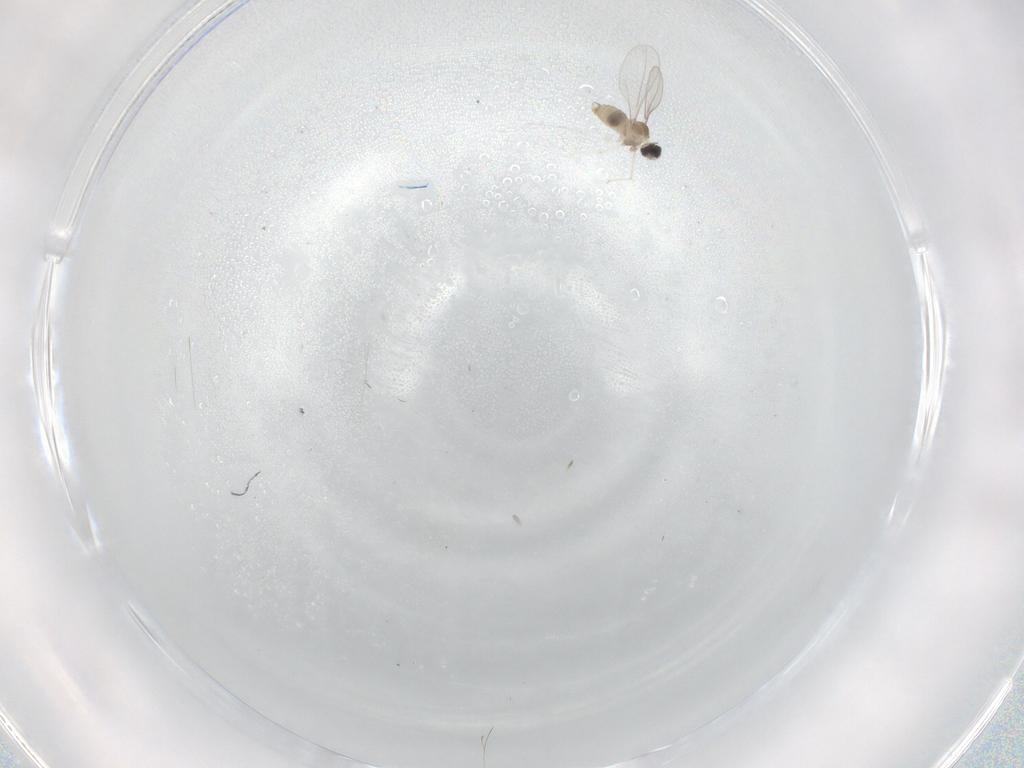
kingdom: Animalia
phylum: Arthropoda
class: Insecta
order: Diptera
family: Cecidomyiidae
